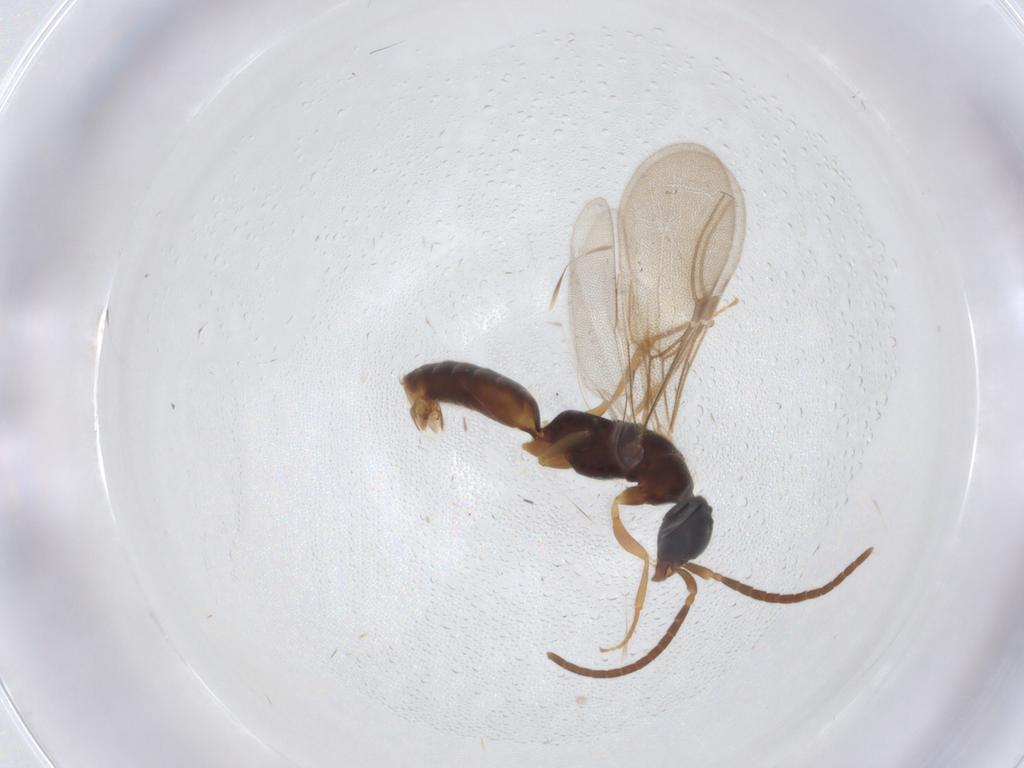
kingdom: Animalia
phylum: Arthropoda
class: Insecta
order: Hymenoptera
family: Bethylidae
